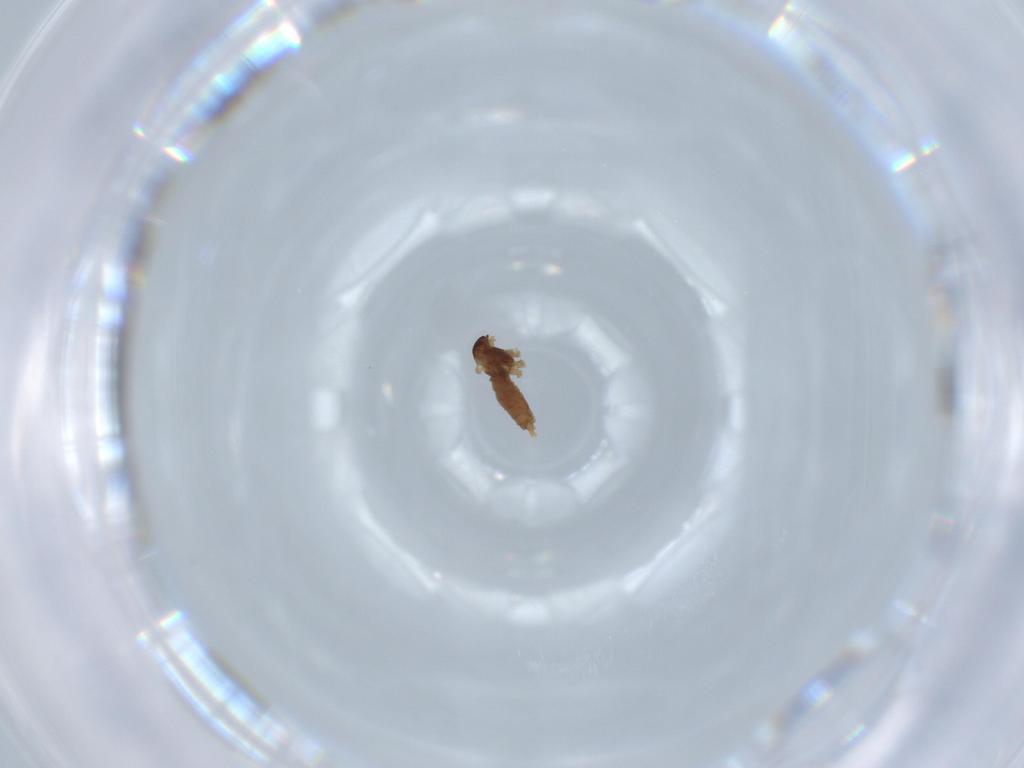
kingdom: Animalia
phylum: Arthropoda
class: Insecta
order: Diptera
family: Cecidomyiidae
